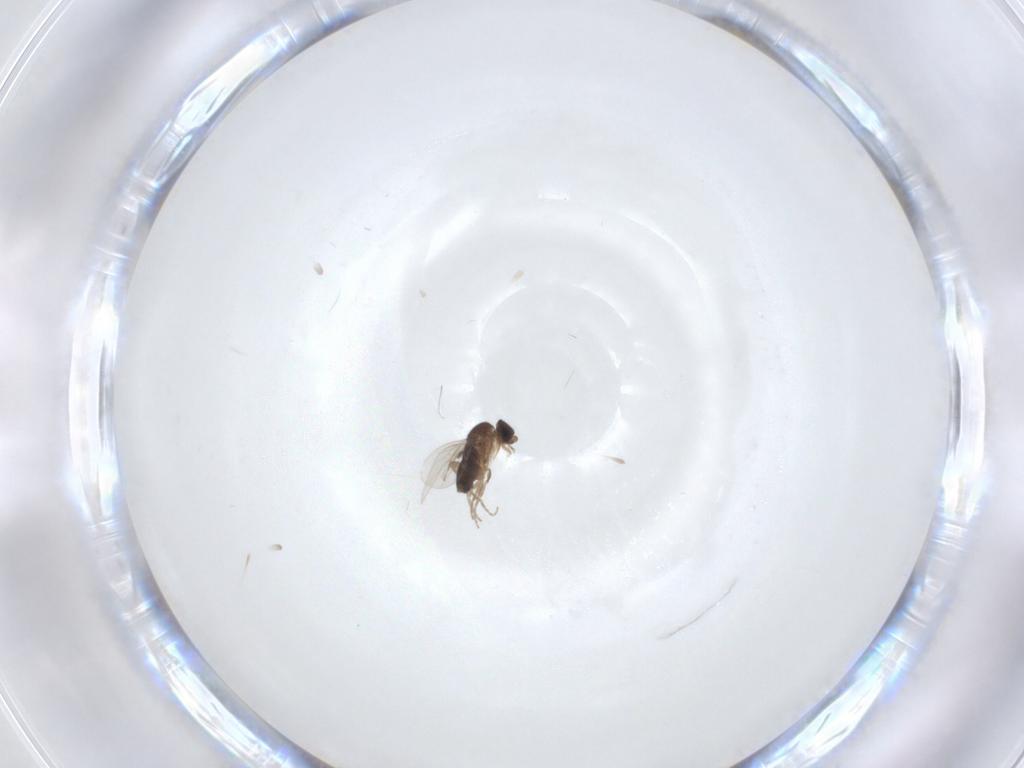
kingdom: Animalia
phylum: Arthropoda
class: Insecta
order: Diptera
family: Phoridae
